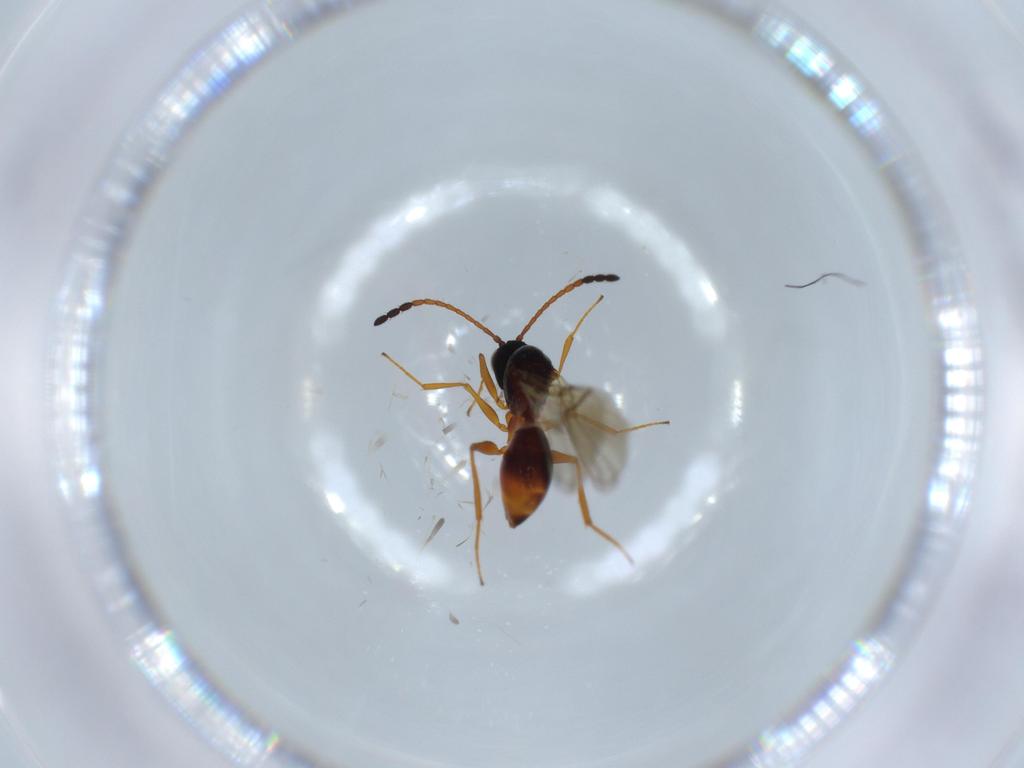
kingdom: Animalia
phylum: Arthropoda
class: Insecta
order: Hymenoptera
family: Figitidae
